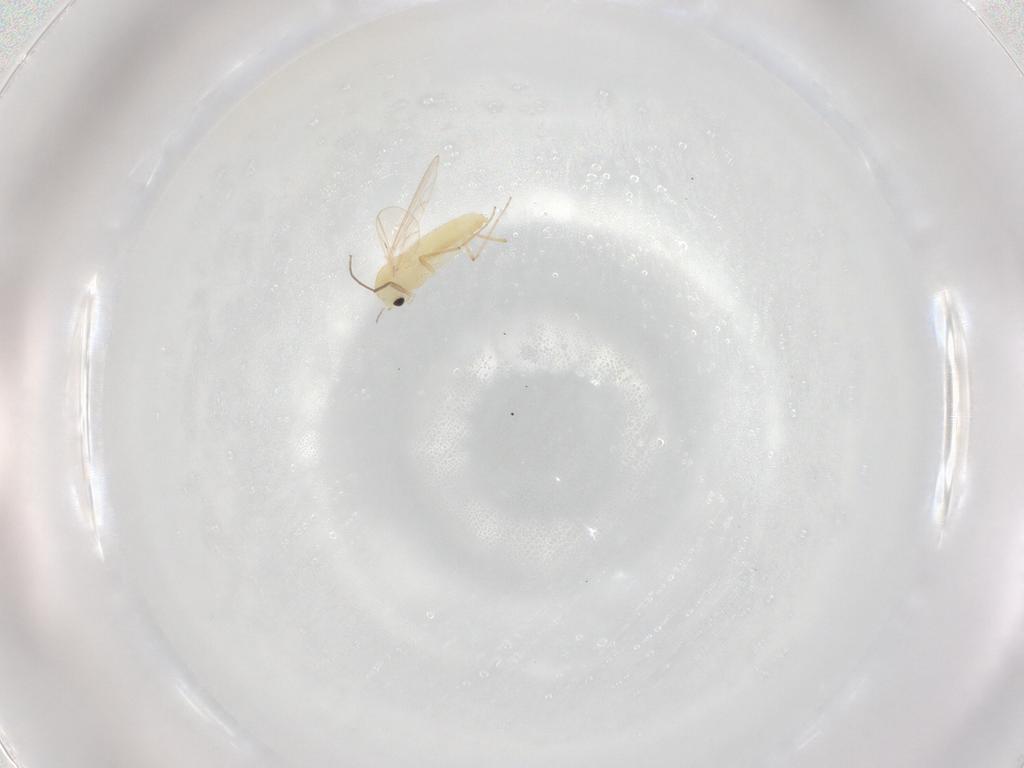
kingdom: Animalia
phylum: Arthropoda
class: Insecta
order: Diptera
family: Chironomidae
